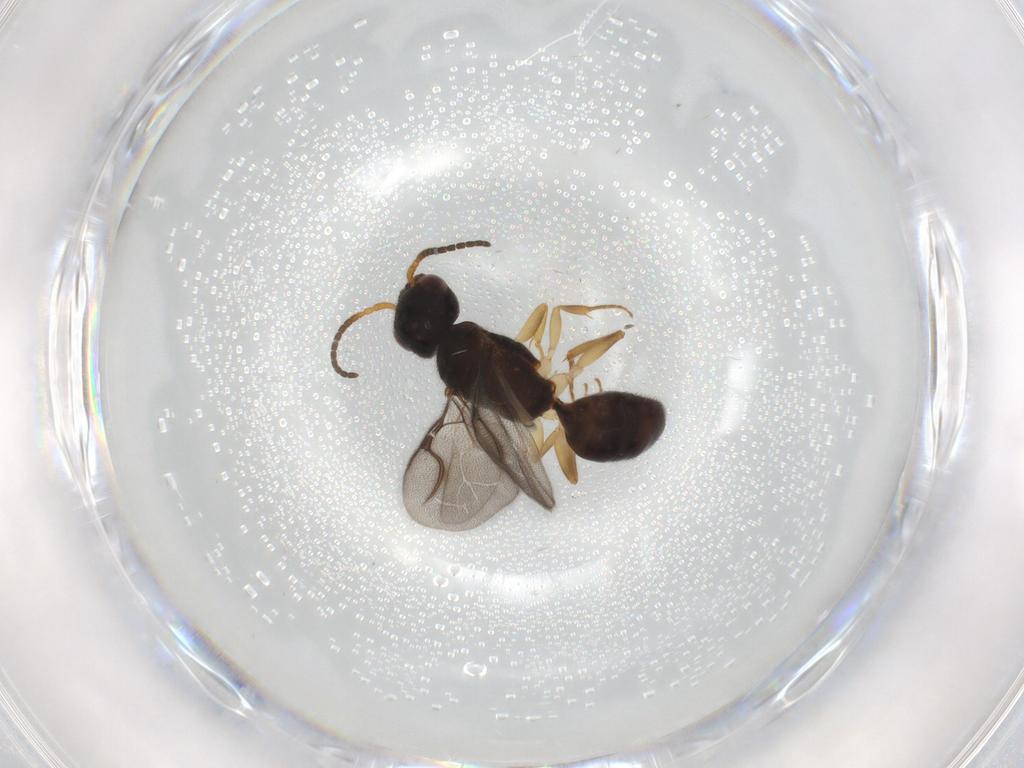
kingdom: Animalia
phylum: Arthropoda
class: Insecta
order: Hymenoptera
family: Bethylidae
